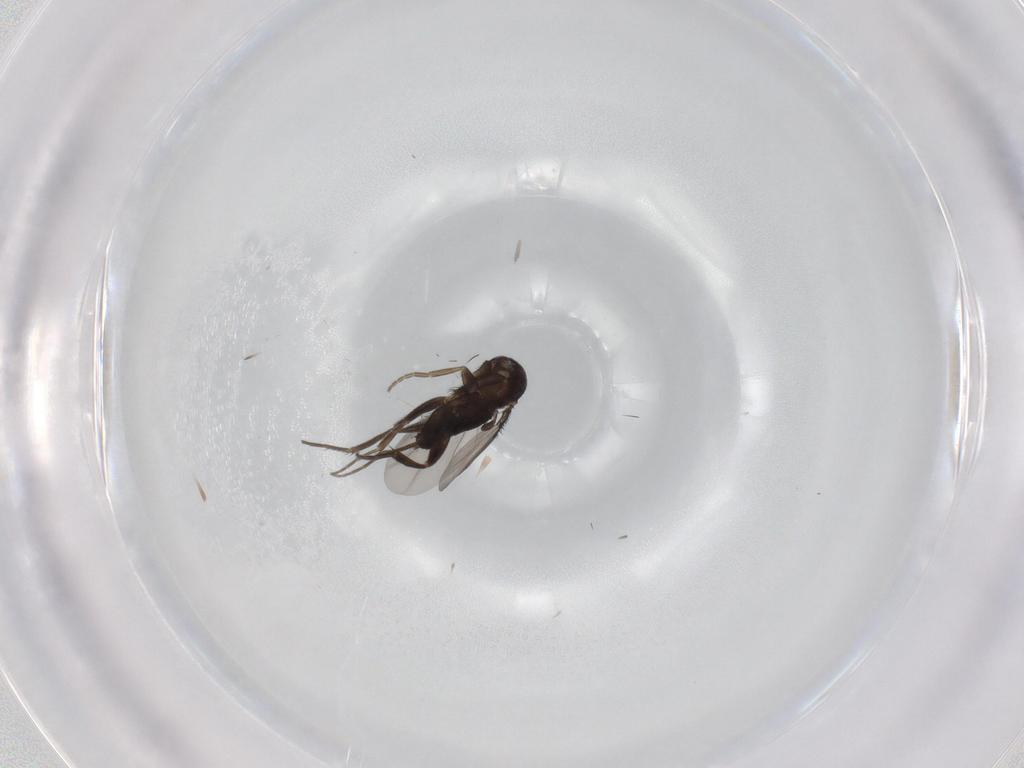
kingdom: Animalia
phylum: Arthropoda
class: Insecta
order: Diptera
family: Phoridae
